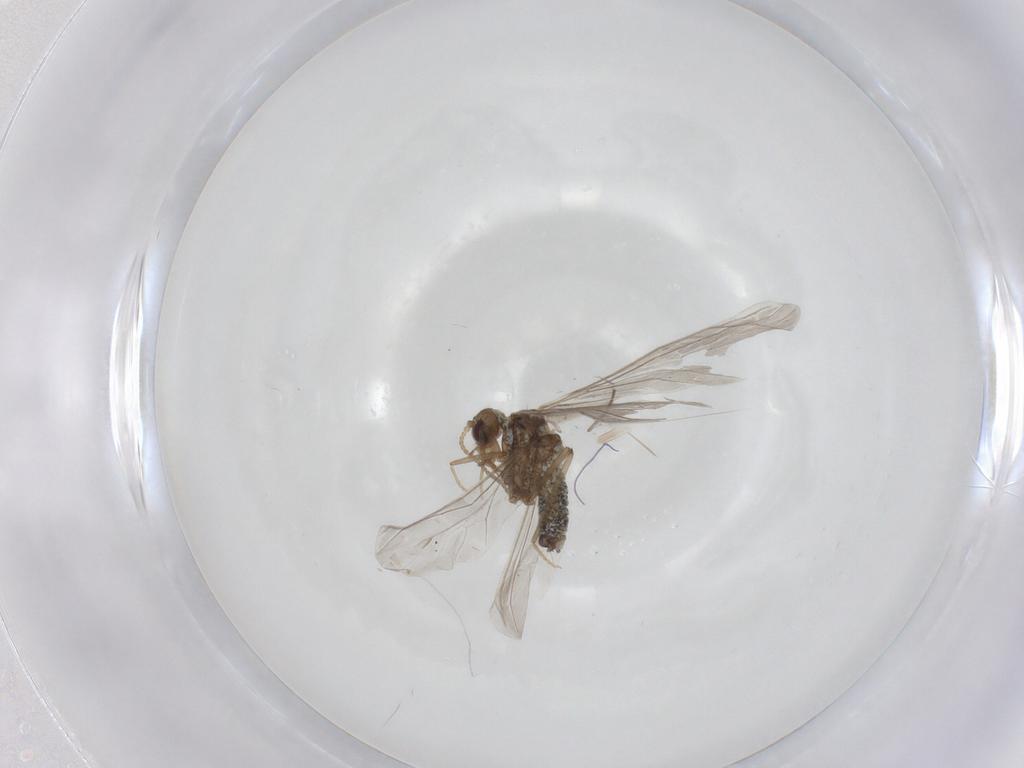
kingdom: Animalia
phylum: Arthropoda
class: Insecta
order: Neuroptera
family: Coniopterygidae
